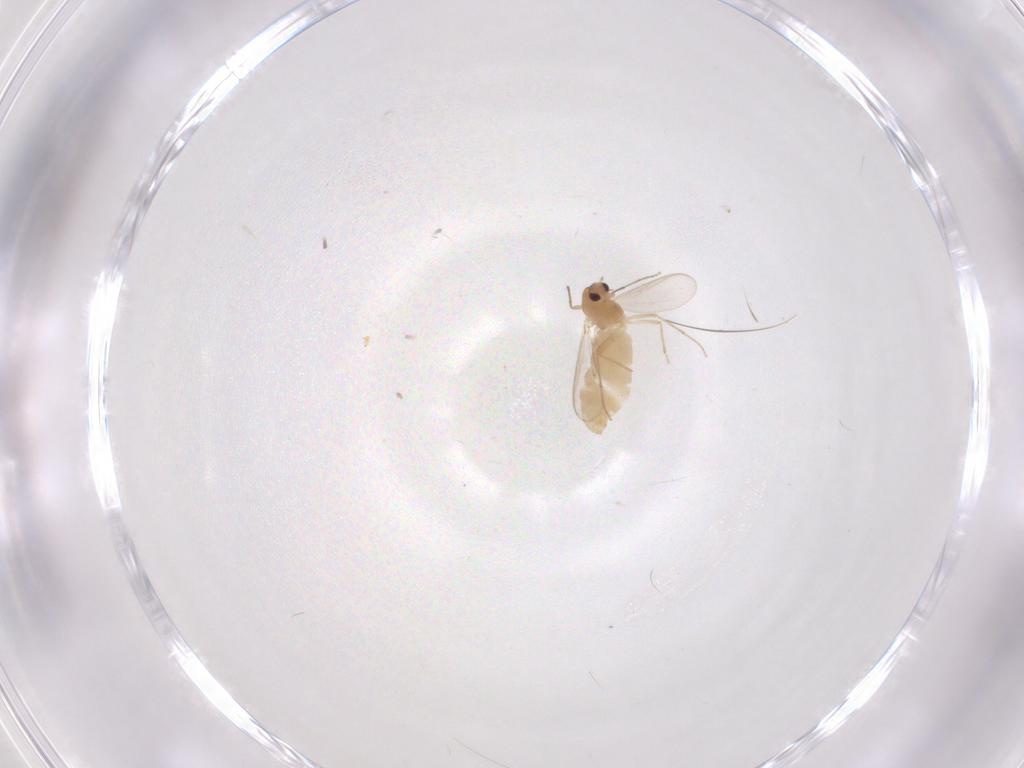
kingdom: Animalia
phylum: Arthropoda
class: Insecta
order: Diptera
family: Chironomidae
